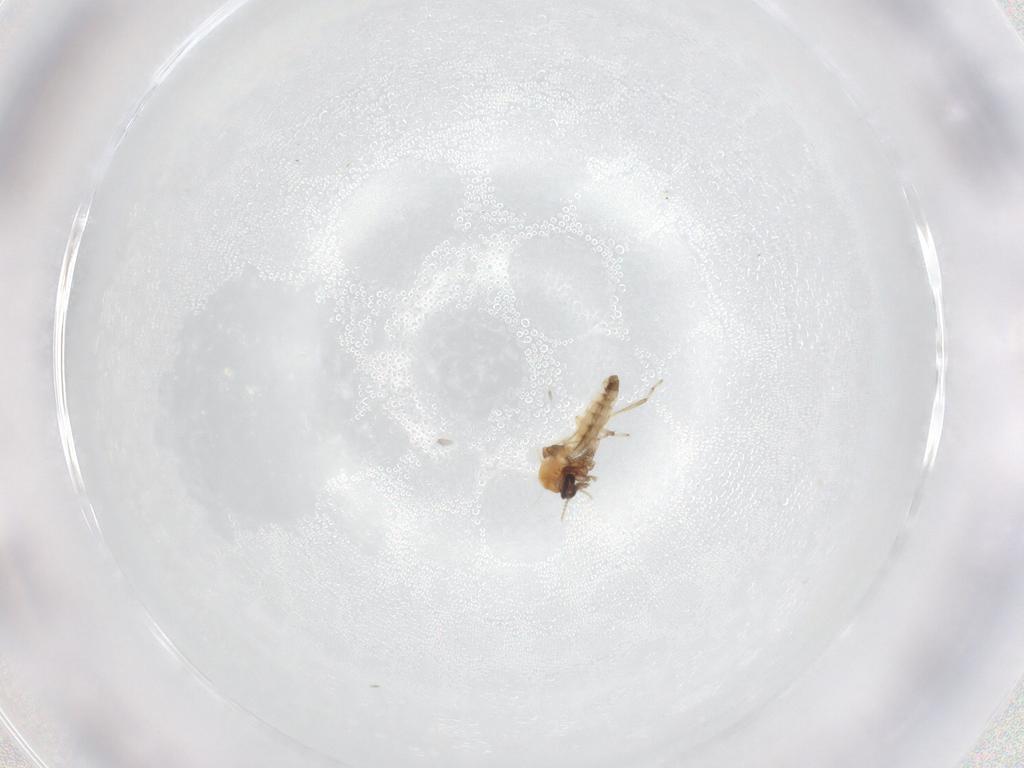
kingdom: Animalia
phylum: Arthropoda
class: Insecta
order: Diptera
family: Ceratopogonidae
